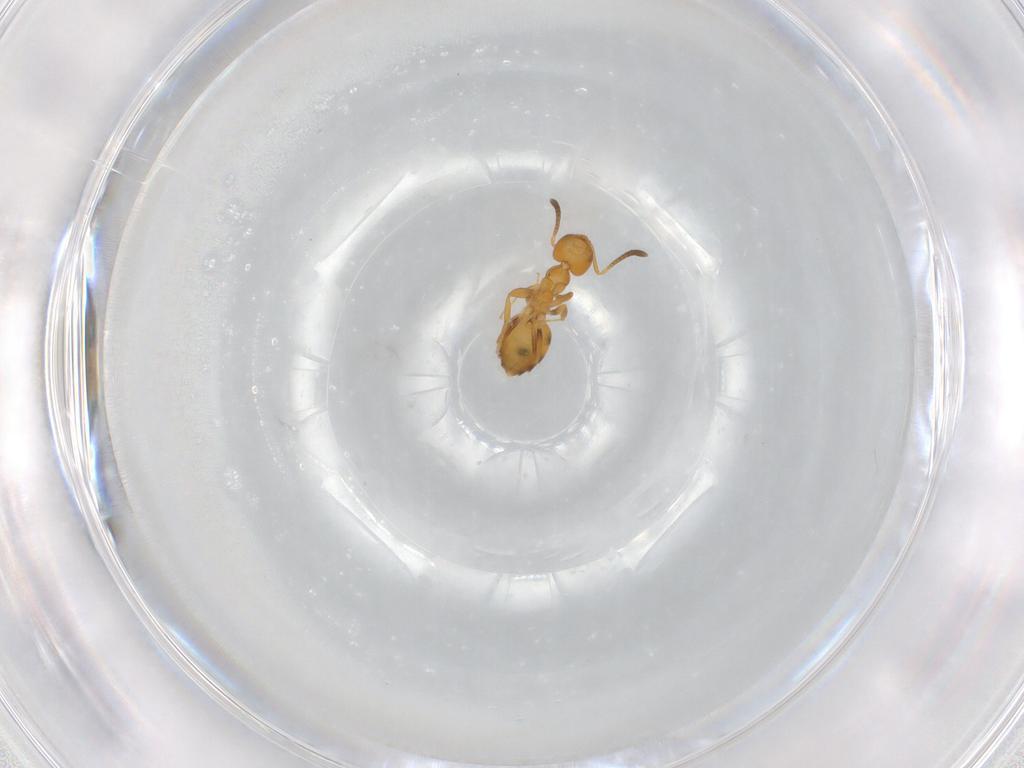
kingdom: Animalia
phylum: Arthropoda
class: Insecta
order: Hymenoptera
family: Formicidae
